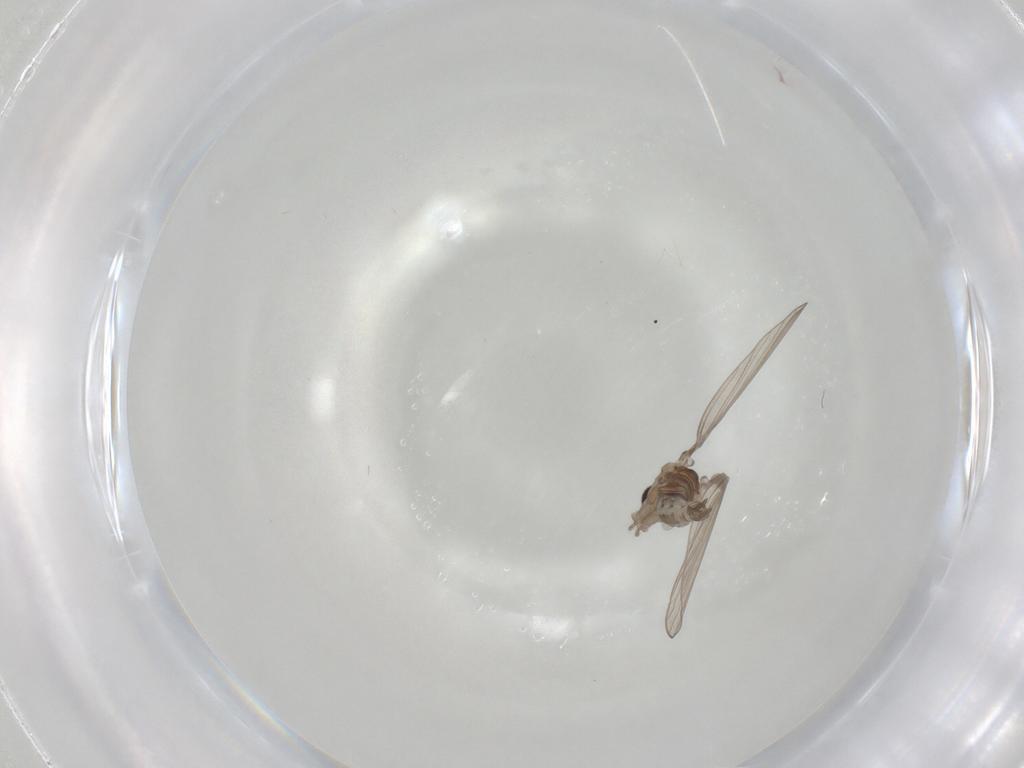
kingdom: Animalia
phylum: Arthropoda
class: Insecta
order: Diptera
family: Psychodidae
